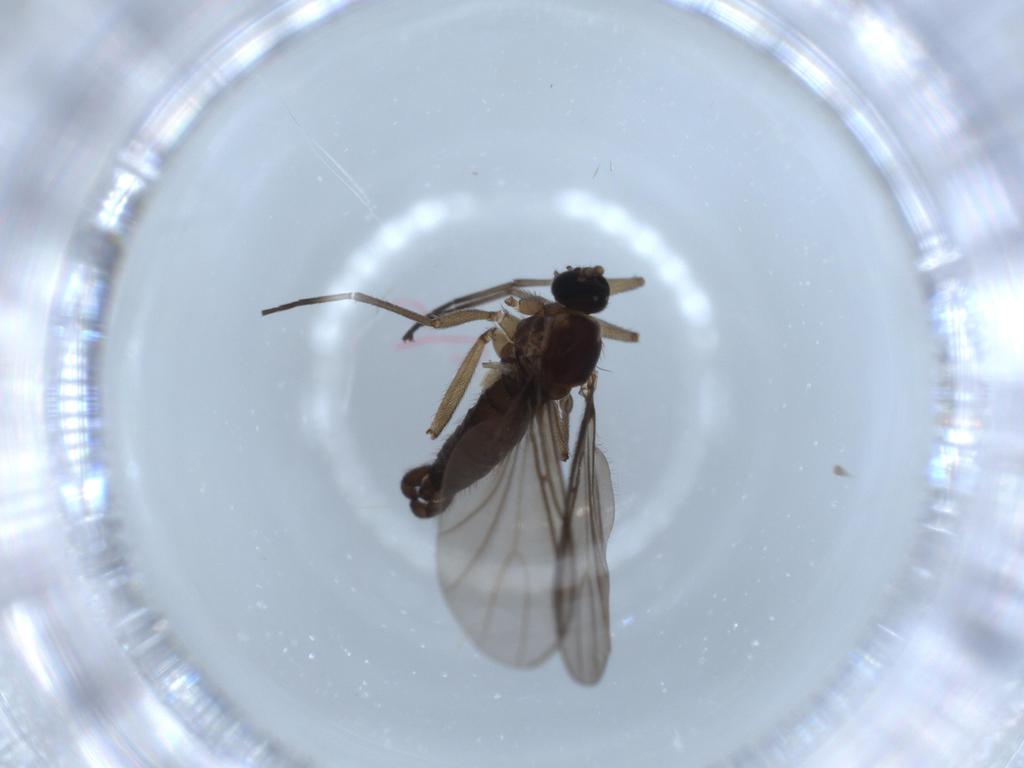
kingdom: Animalia
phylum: Arthropoda
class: Insecta
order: Diptera
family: Sciaridae
